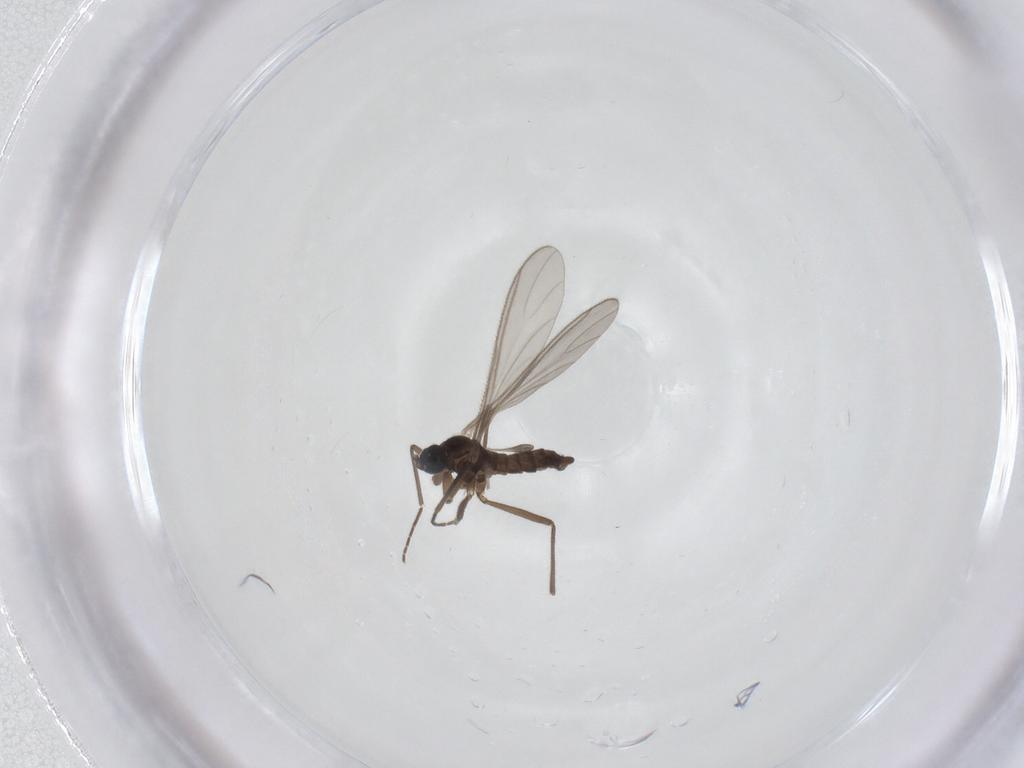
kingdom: Animalia
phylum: Arthropoda
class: Insecta
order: Diptera
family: Sciaridae
